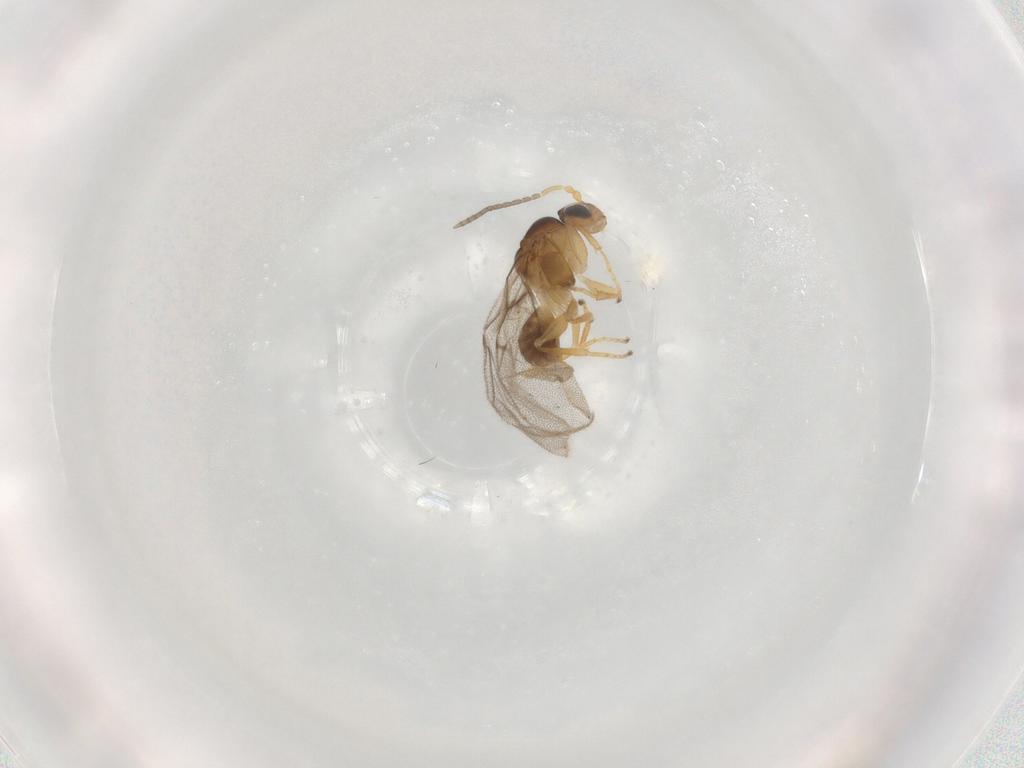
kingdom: Animalia
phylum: Arthropoda
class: Insecta
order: Hymenoptera
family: Cynipidae
